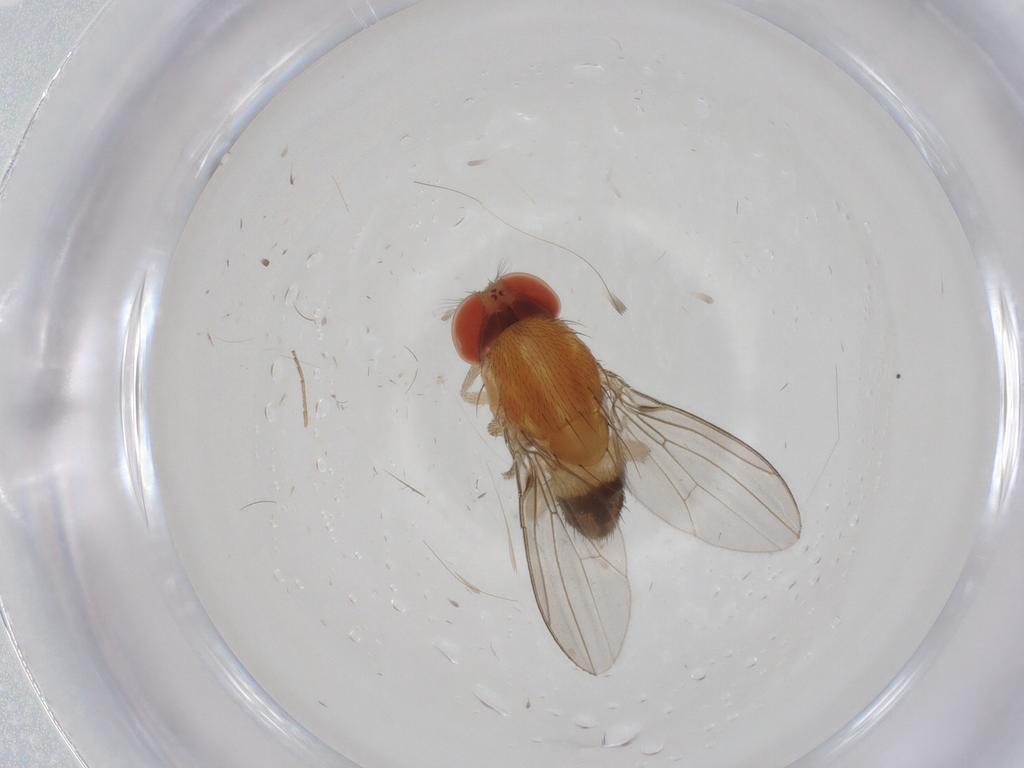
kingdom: Animalia
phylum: Arthropoda
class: Insecta
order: Diptera
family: Drosophilidae
